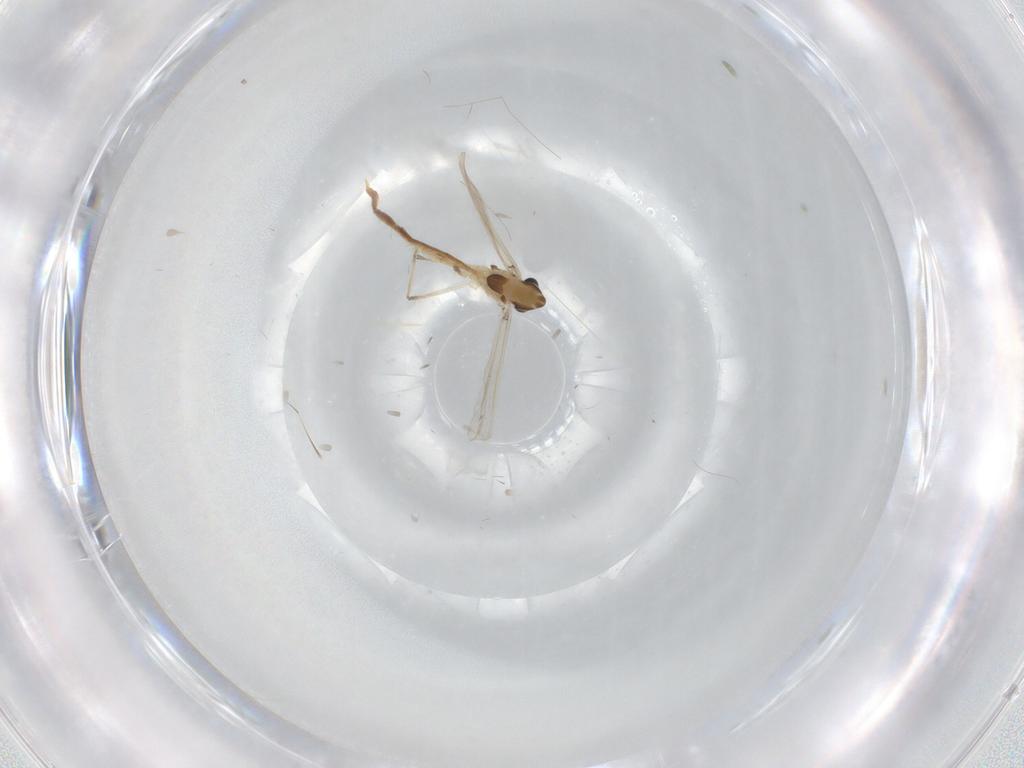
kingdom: Animalia
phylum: Arthropoda
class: Insecta
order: Diptera
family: Chironomidae
